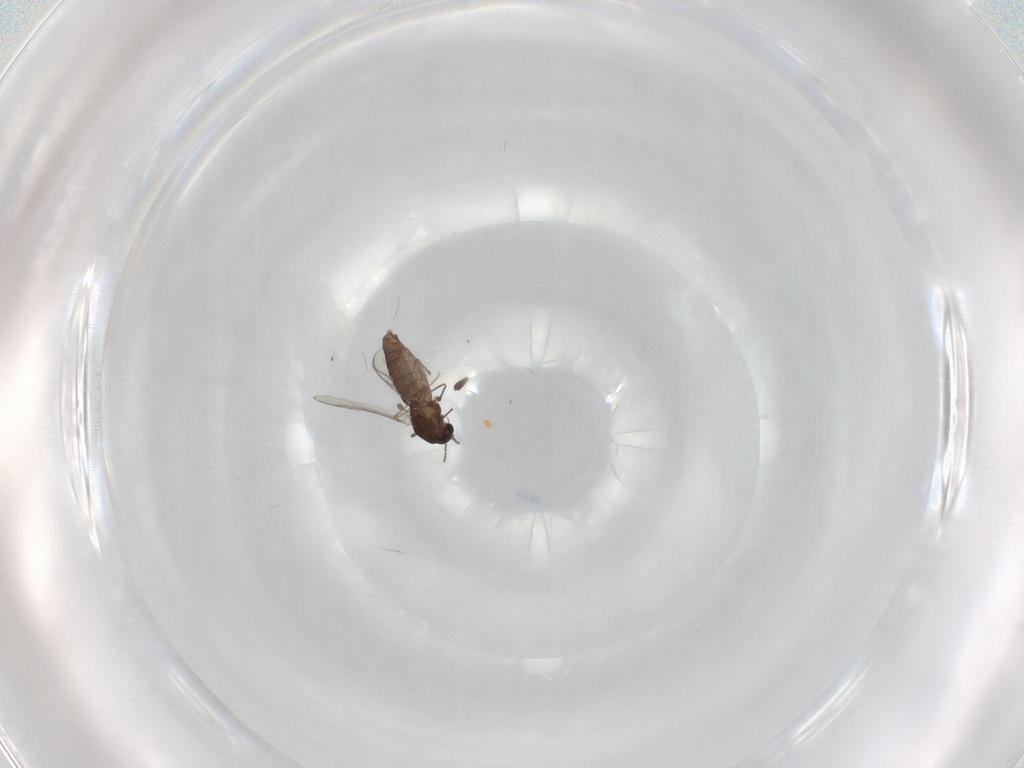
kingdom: Animalia
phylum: Arthropoda
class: Insecta
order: Diptera
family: Chironomidae
